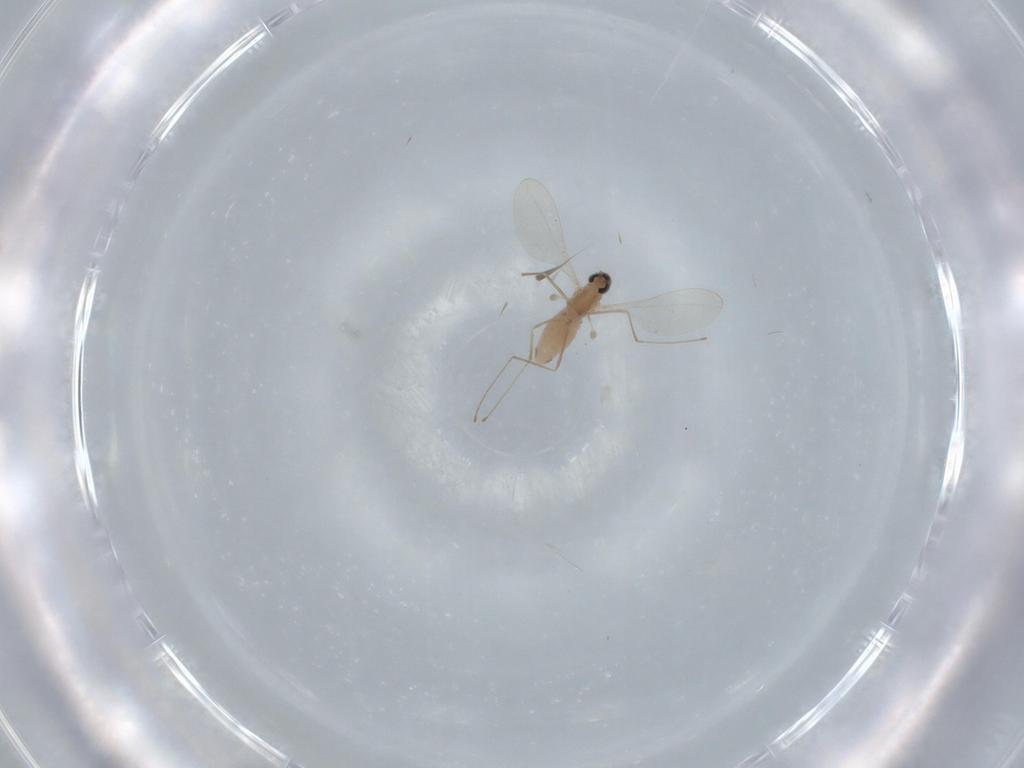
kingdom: Animalia
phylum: Arthropoda
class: Insecta
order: Diptera
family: Cecidomyiidae
